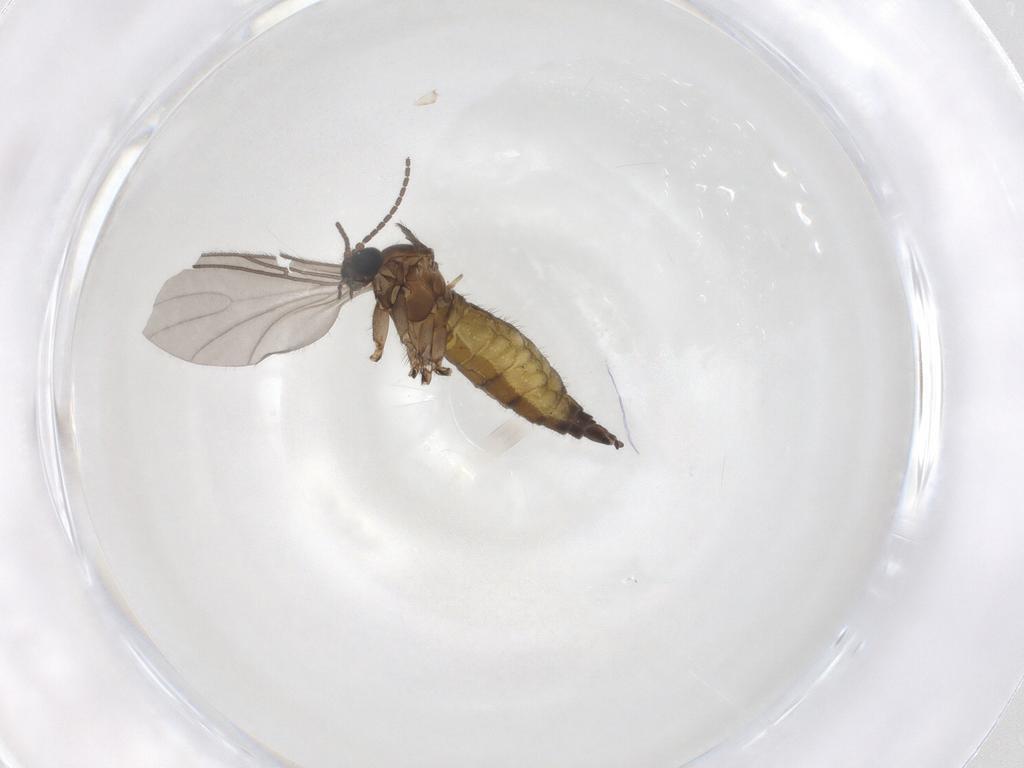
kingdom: Animalia
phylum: Arthropoda
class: Insecta
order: Diptera
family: Sciaridae
